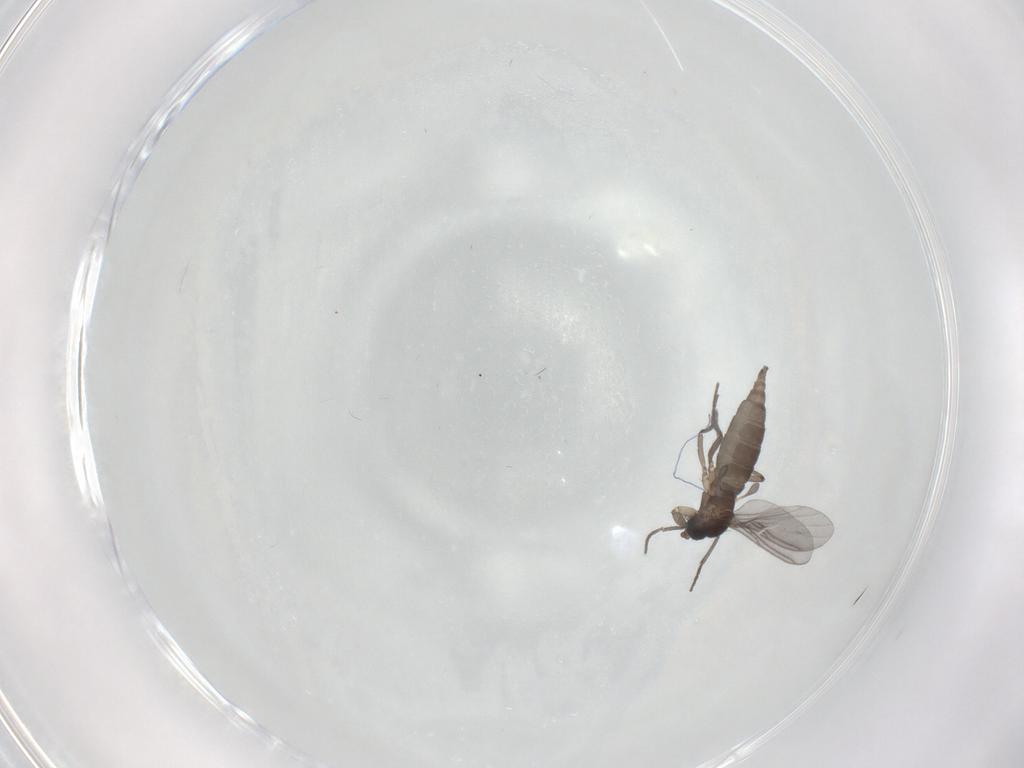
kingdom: Animalia
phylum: Arthropoda
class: Insecta
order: Diptera
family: Sciaridae
